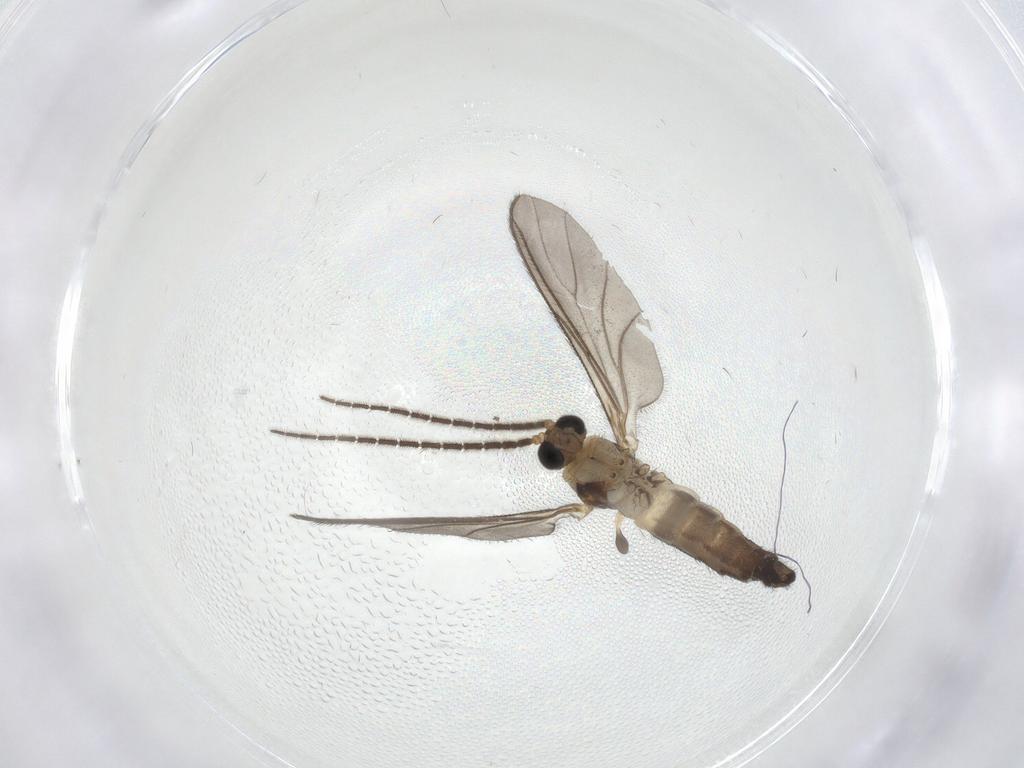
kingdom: Animalia
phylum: Arthropoda
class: Insecta
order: Diptera
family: Sciaridae
